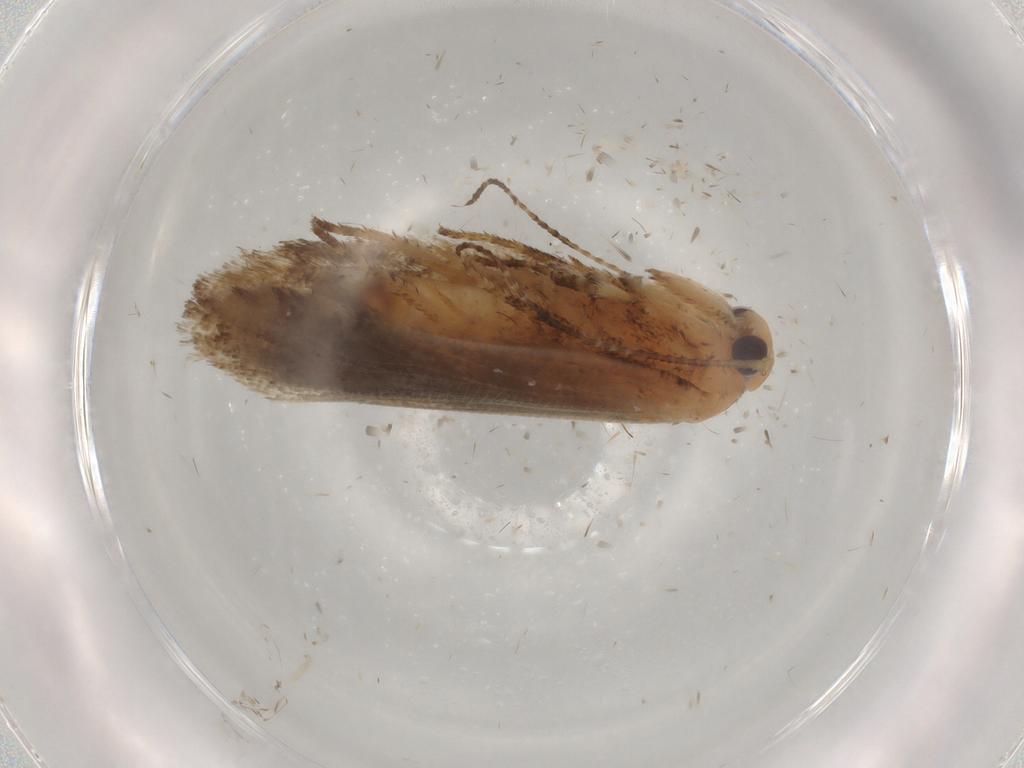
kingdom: Animalia
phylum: Arthropoda
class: Insecta
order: Lepidoptera
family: Ypsolophidae
